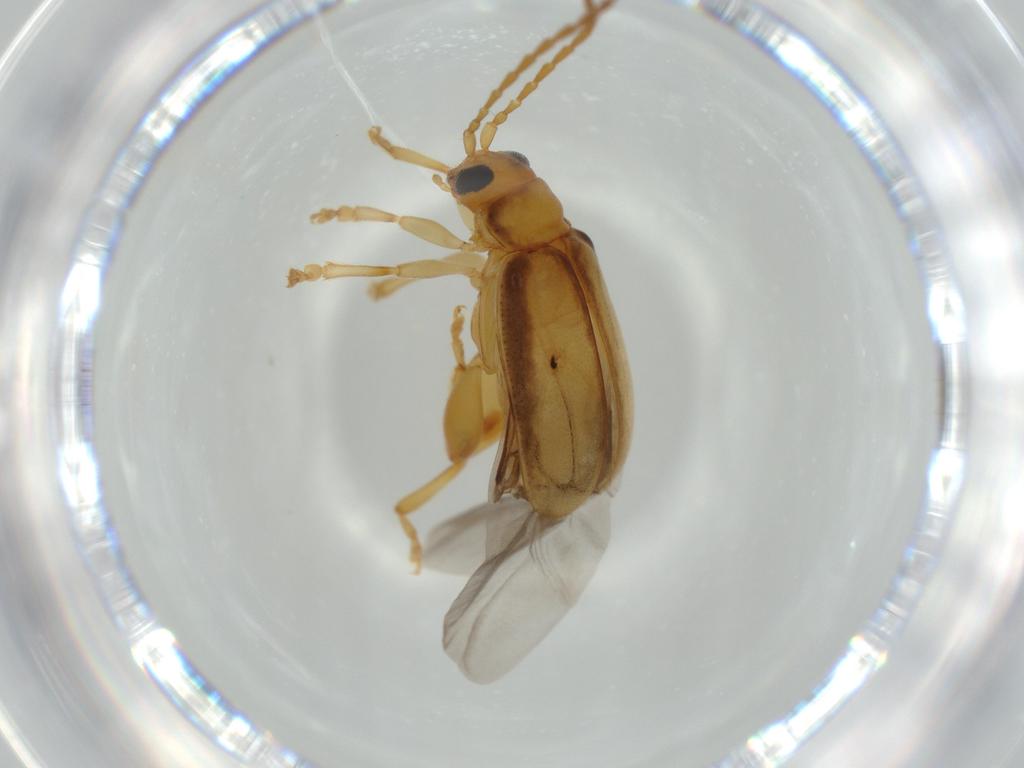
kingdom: Animalia
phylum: Arthropoda
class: Insecta
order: Coleoptera
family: Chrysomelidae
